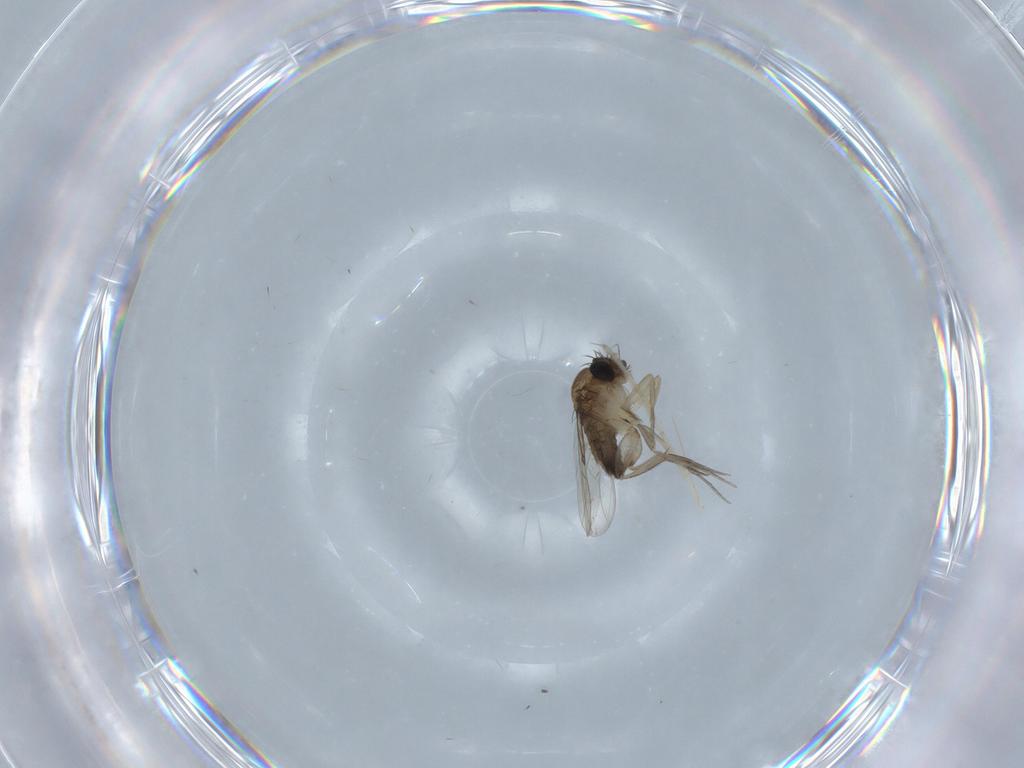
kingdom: Animalia
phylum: Arthropoda
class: Insecta
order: Diptera
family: Phoridae
